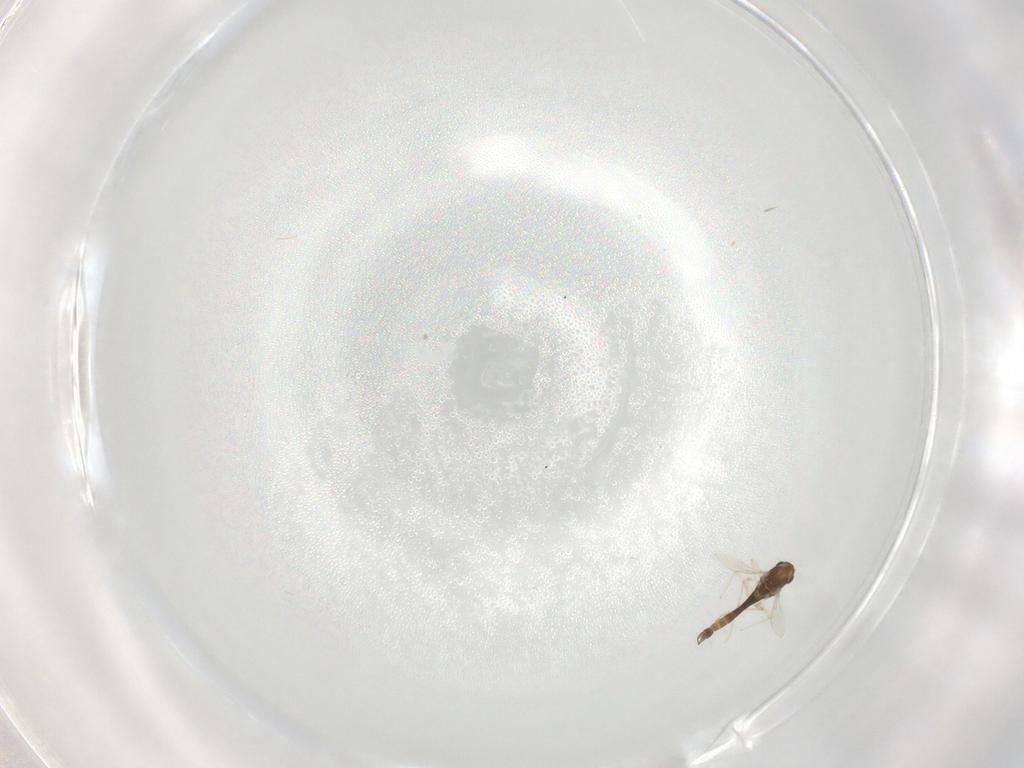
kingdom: Animalia
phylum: Arthropoda
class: Insecta
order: Diptera
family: Chironomidae
